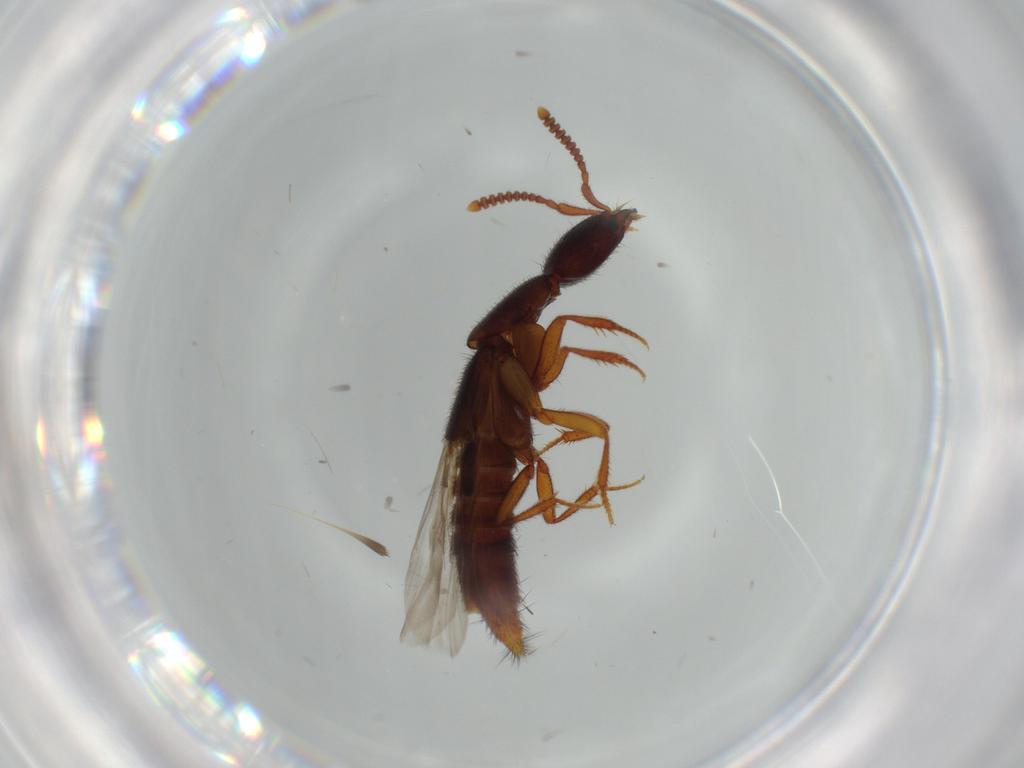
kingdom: Animalia
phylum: Arthropoda
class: Insecta
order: Coleoptera
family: Staphylinidae
